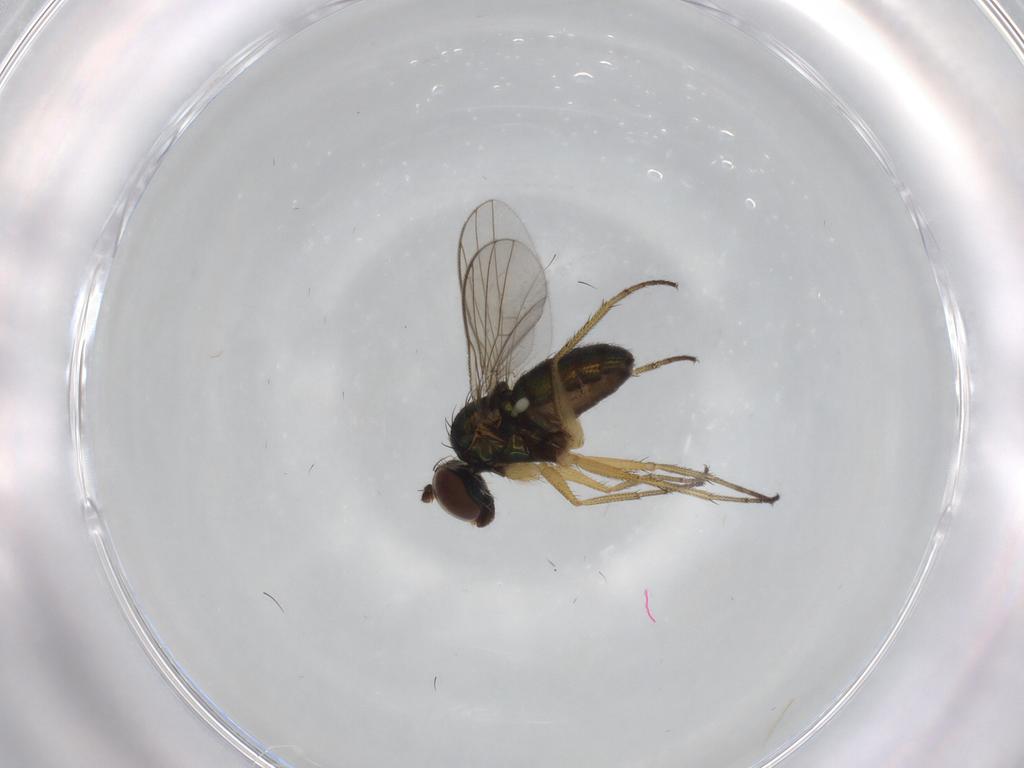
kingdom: Animalia
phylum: Arthropoda
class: Insecta
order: Diptera
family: Dolichopodidae
